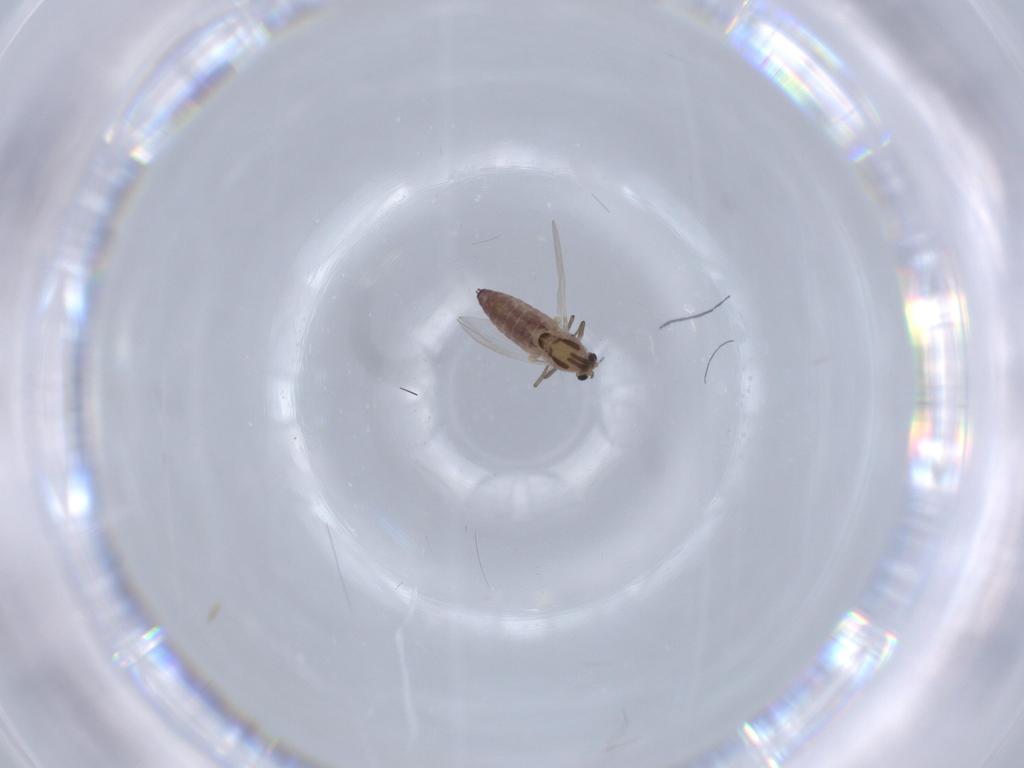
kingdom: Animalia
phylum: Arthropoda
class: Insecta
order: Diptera
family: Chironomidae
